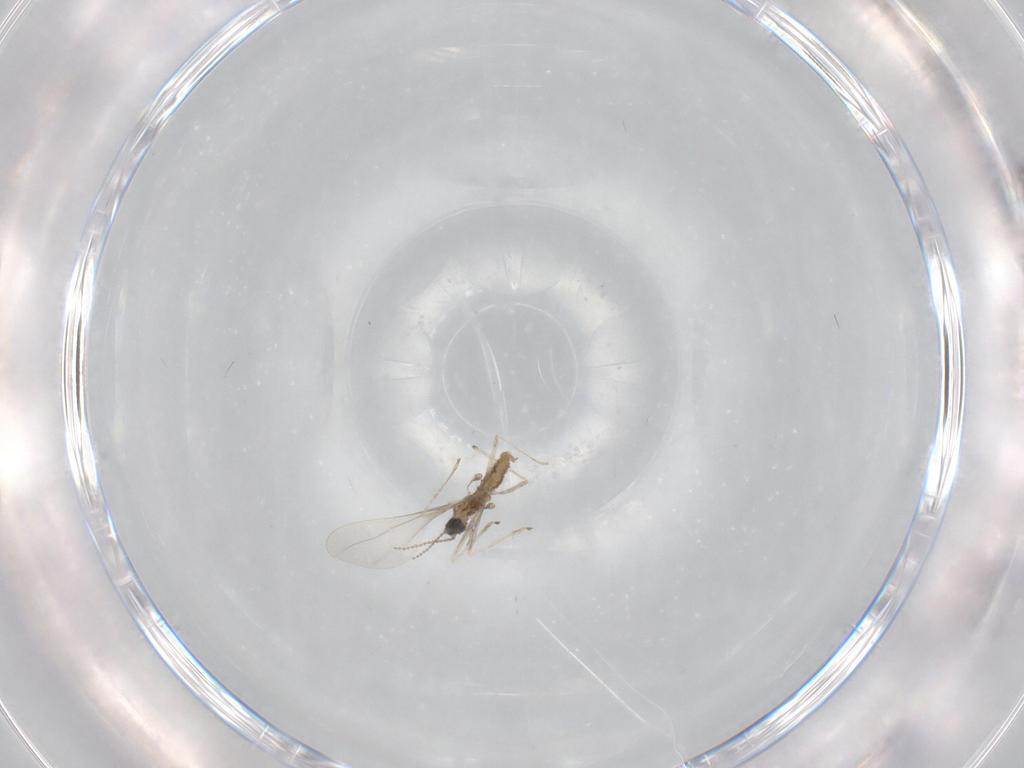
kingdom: Animalia
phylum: Arthropoda
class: Insecta
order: Diptera
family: Cecidomyiidae
